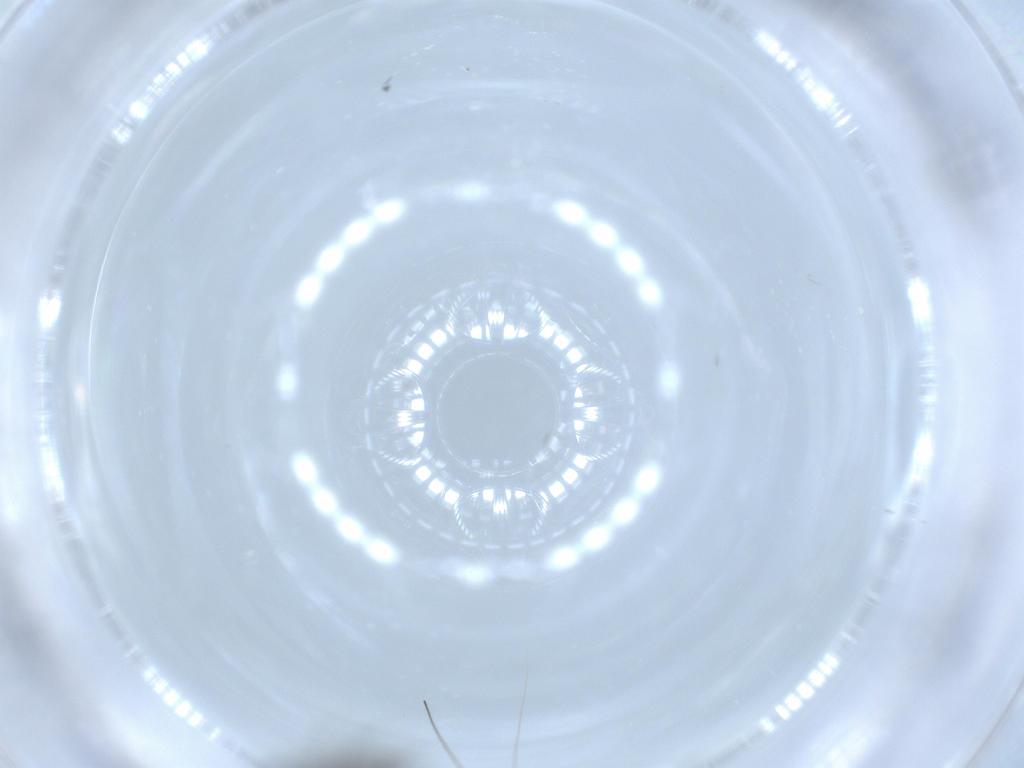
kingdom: Animalia
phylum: Arthropoda
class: Insecta
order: Diptera
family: Sciaridae
